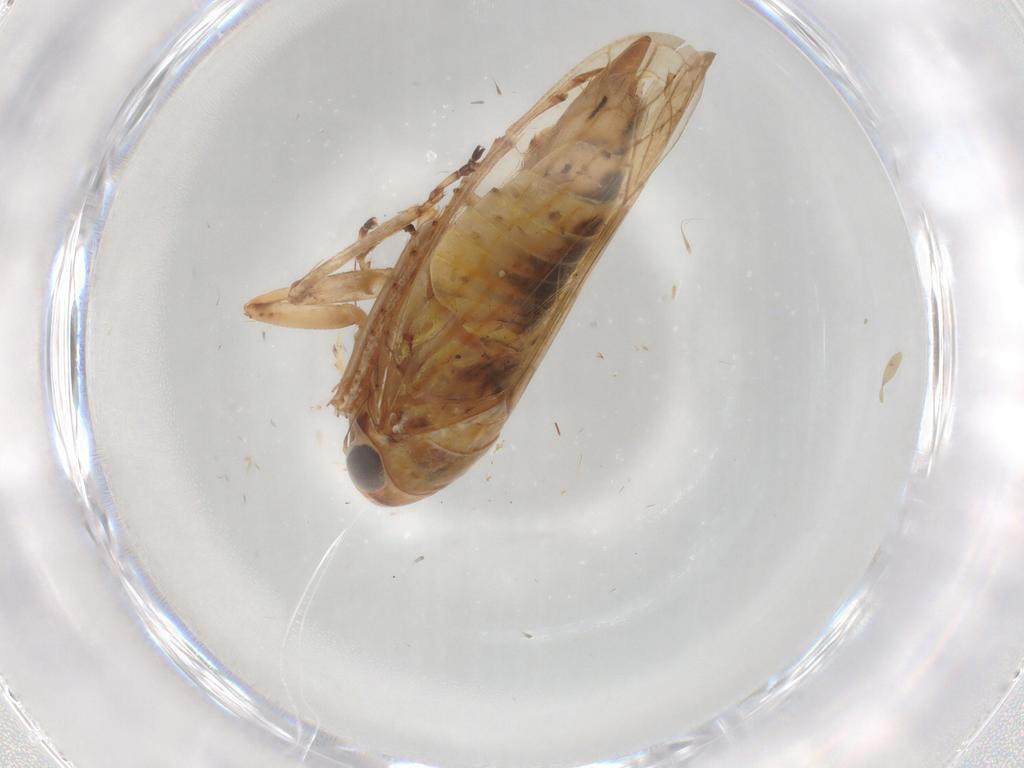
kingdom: Animalia
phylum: Arthropoda
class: Insecta
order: Hemiptera
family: Cicadellidae
